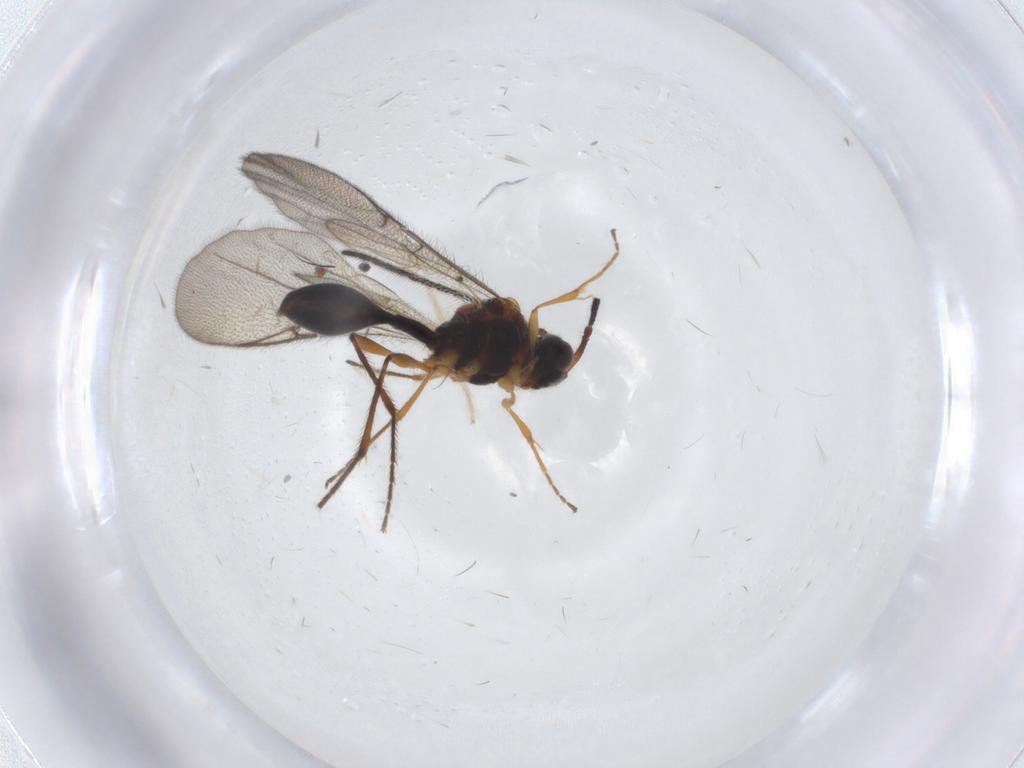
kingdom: Animalia
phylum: Arthropoda
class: Insecta
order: Hymenoptera
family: Ichneumonidae
